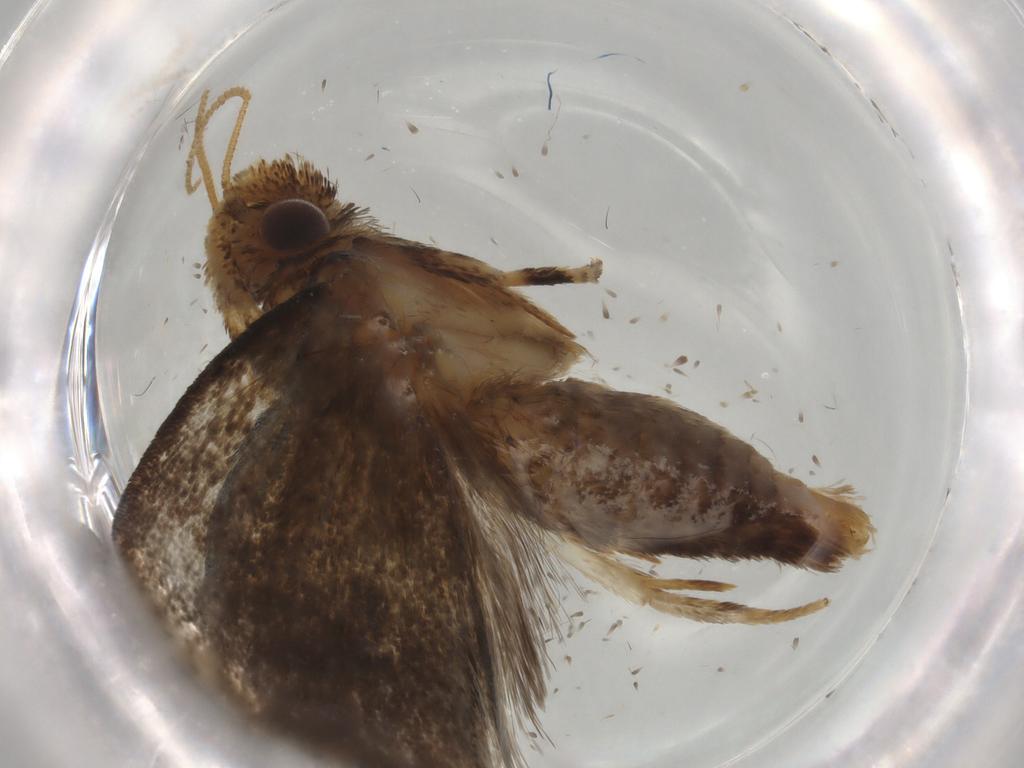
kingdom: Animalia
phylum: Arthropoda
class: Insecta
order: Lepidoptera
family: Tineidae
